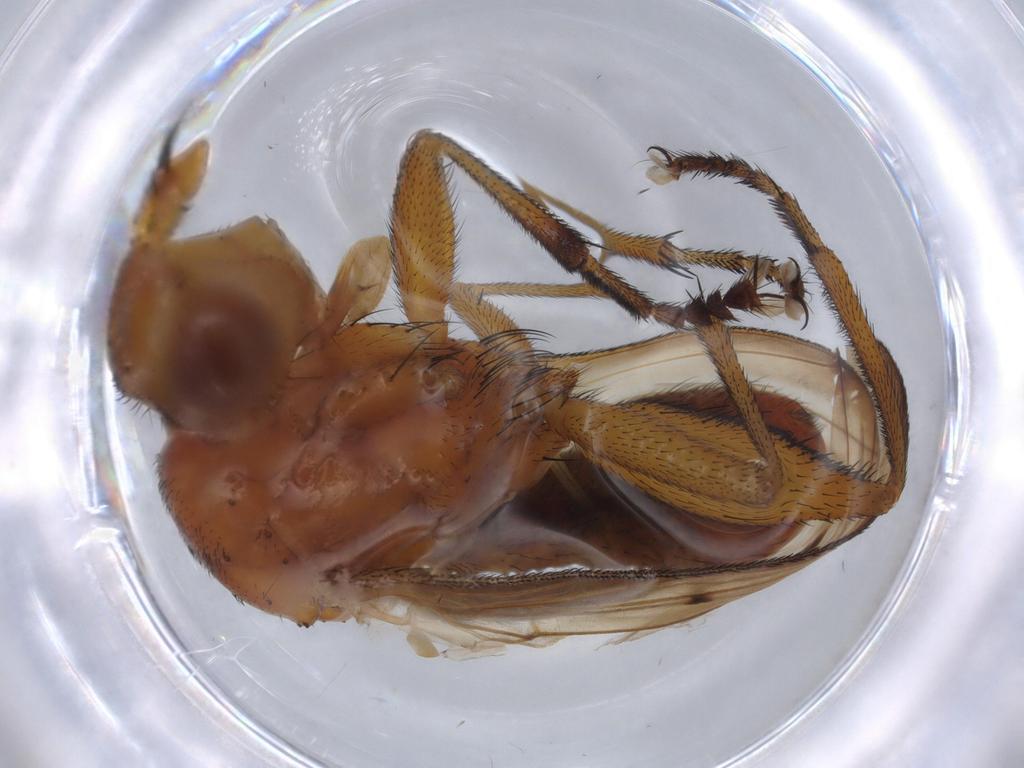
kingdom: Animalia
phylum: Arthropoda
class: Insecta
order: Diptera
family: Cecidomyiidae
